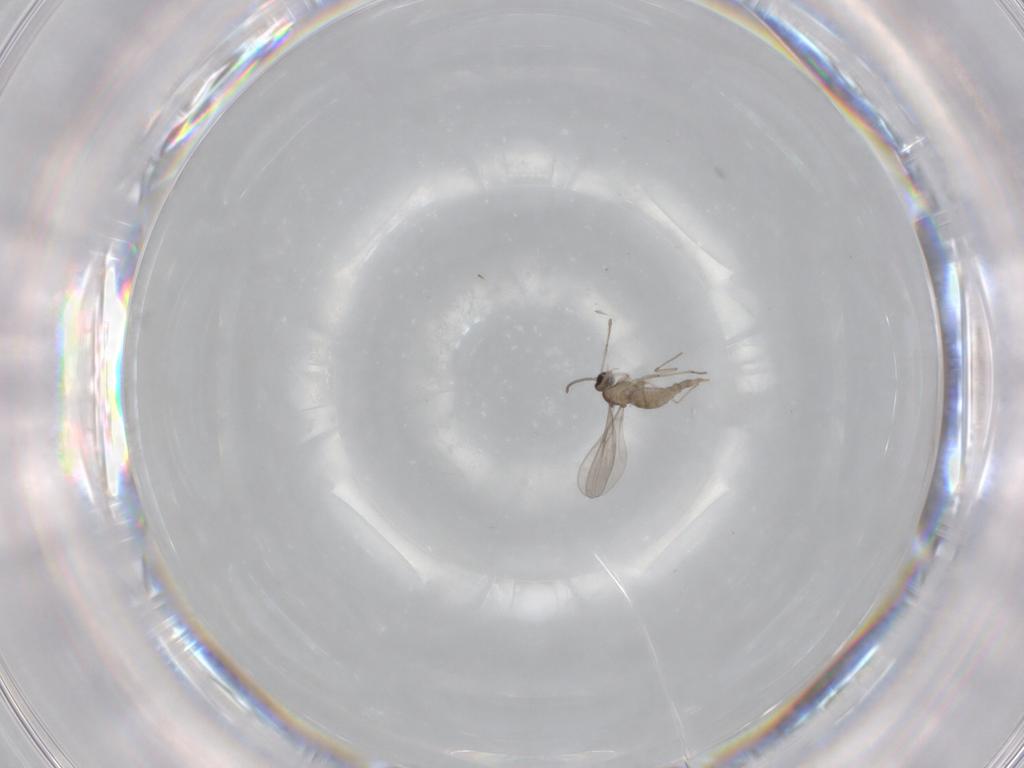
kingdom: Animalia
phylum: Arthropoda
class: Insecta
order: Diptera
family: Cecidomyiidae
